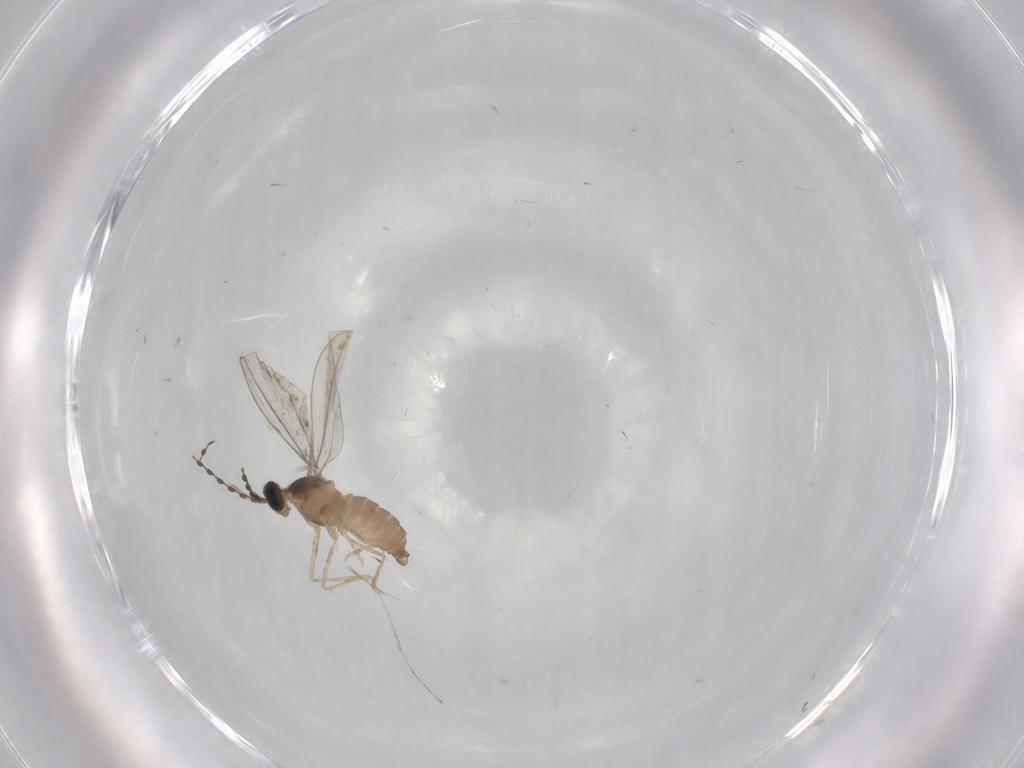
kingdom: Animalia
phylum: Arthropoda
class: Insecta
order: Diptera
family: Cecidomyiidae
